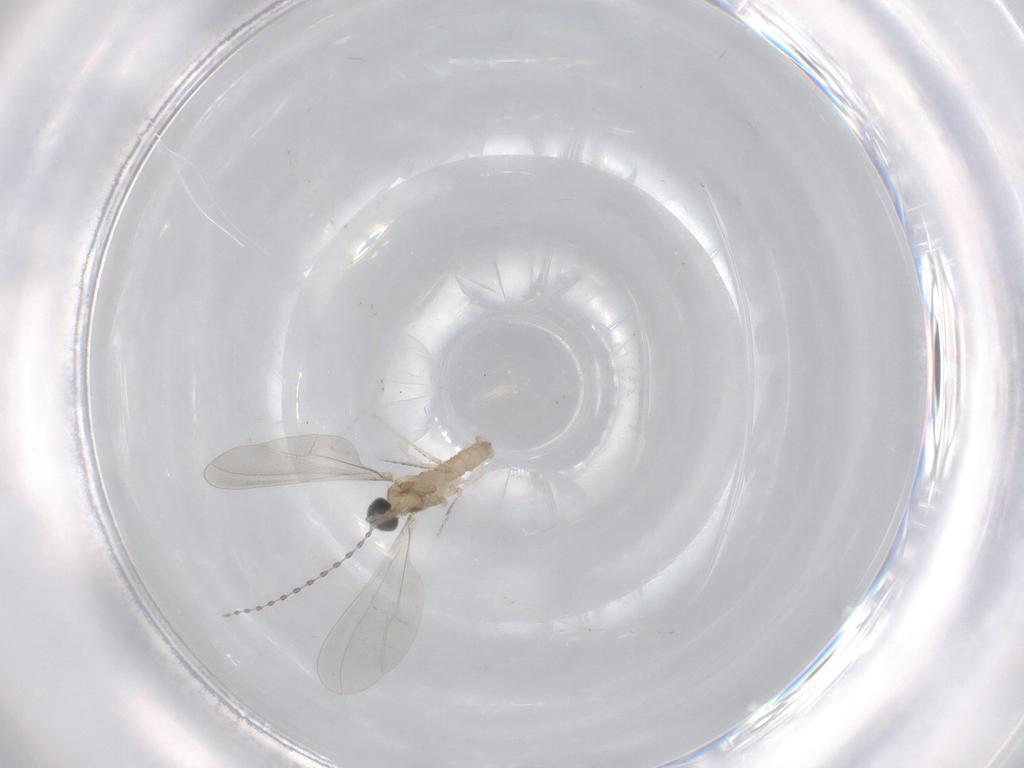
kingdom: Animalia
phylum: Arthropoda
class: Insecta
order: Diptera
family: Cecidomyiidae
